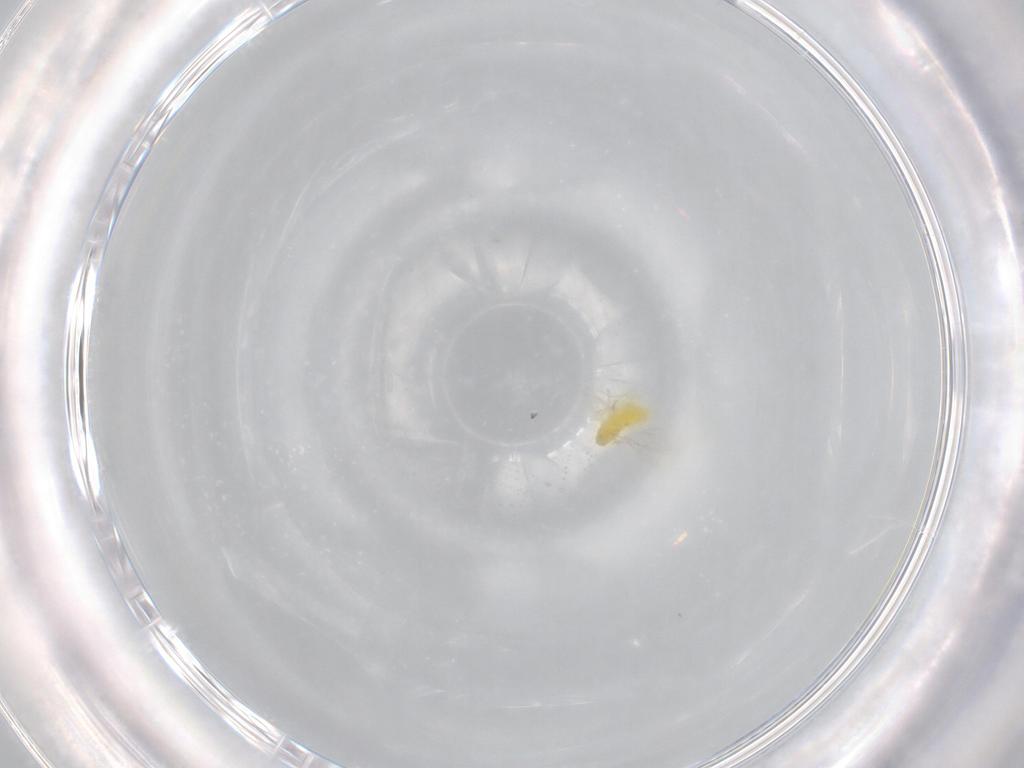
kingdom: Animalia
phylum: Arthropoda
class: Insecta
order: Hymenoptera
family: Aphelinidae
